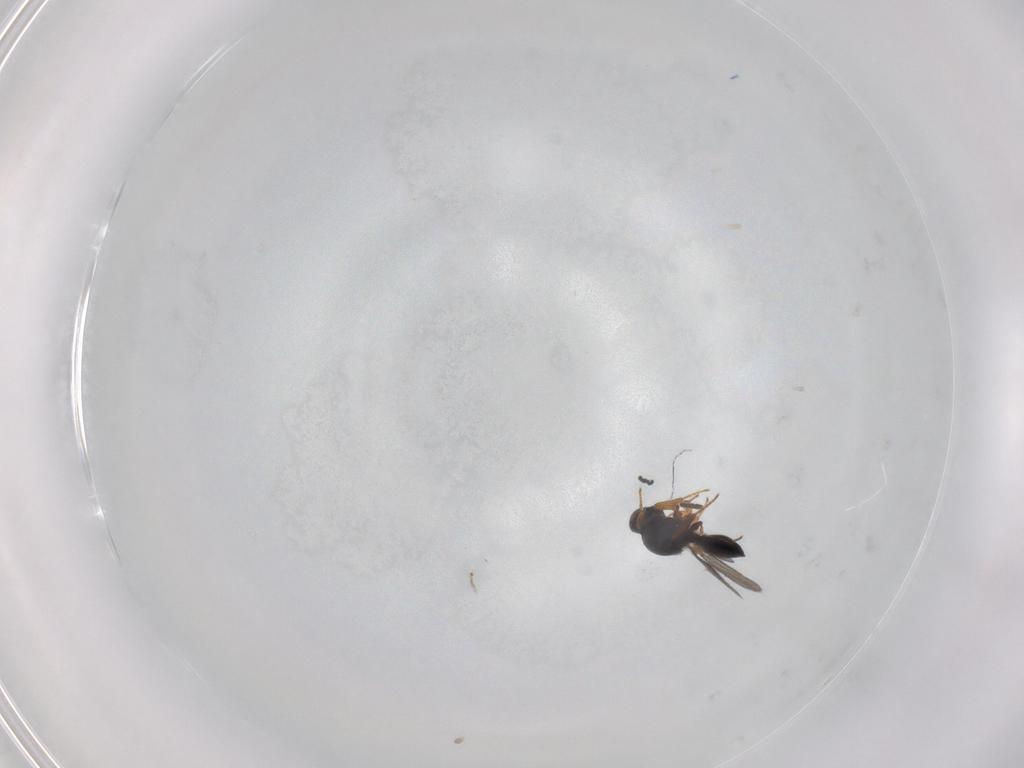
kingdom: Animalia
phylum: Arthropoda
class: Insecta
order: Hymenoptera
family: Platygastridae
